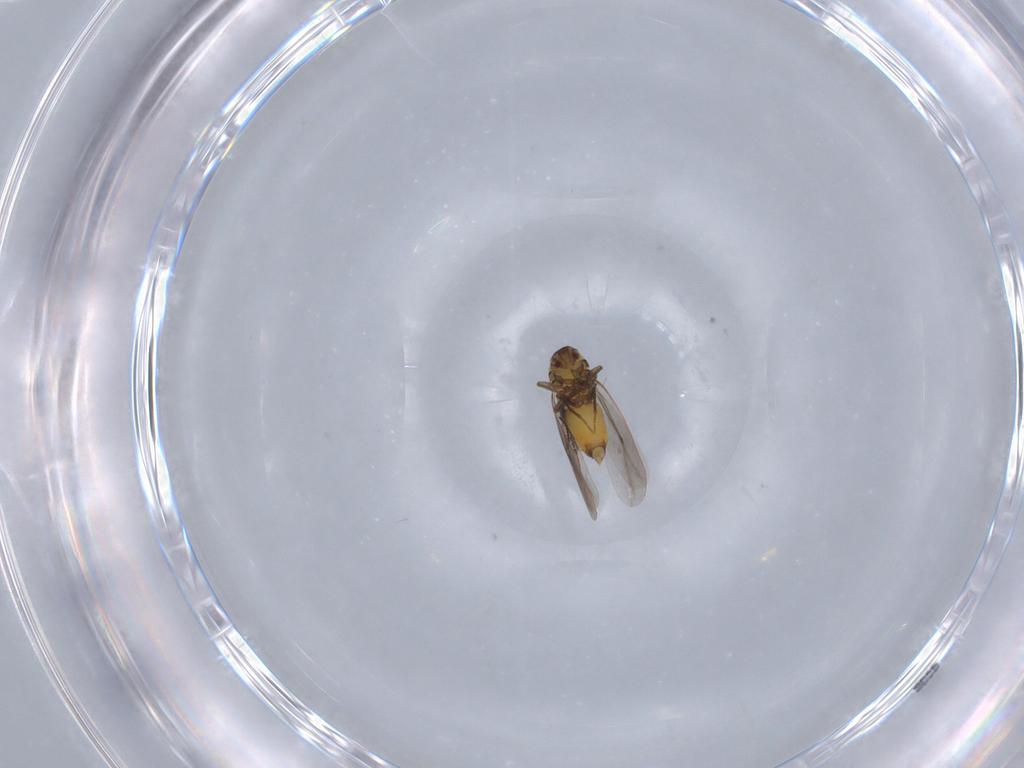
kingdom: Animalia
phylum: Arthropoda
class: Insecta
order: Hemiptera
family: Aleyrodidae
